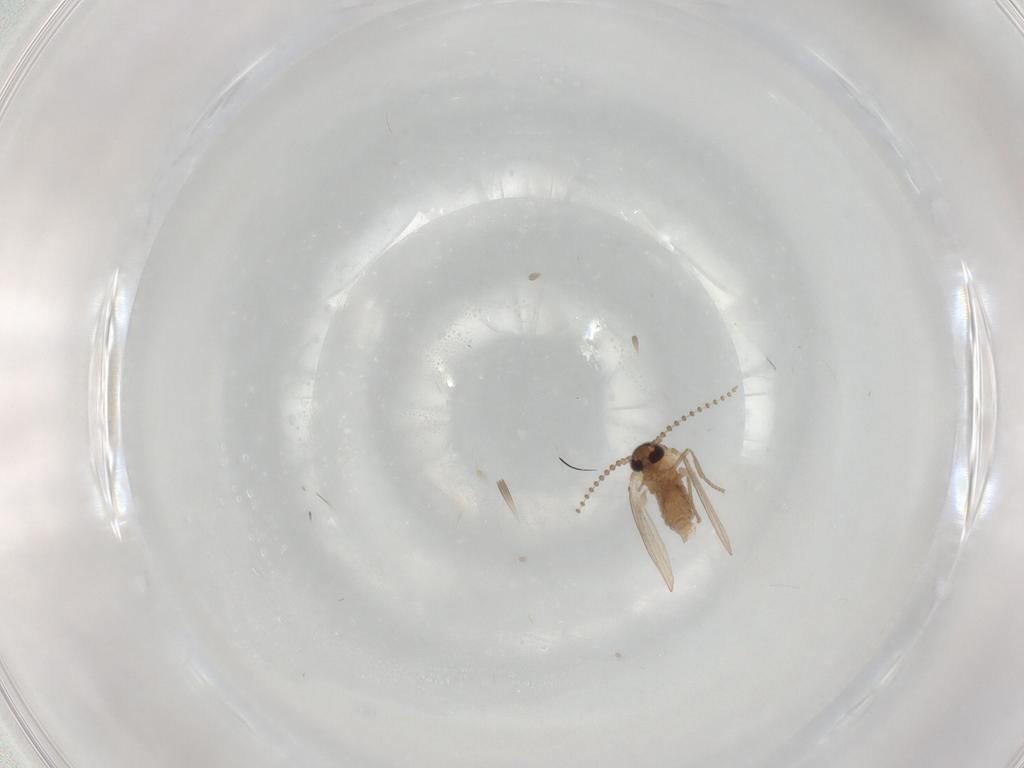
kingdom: Animalia
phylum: Arthropoda
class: Insecta
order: Diptera
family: Psychodidae
